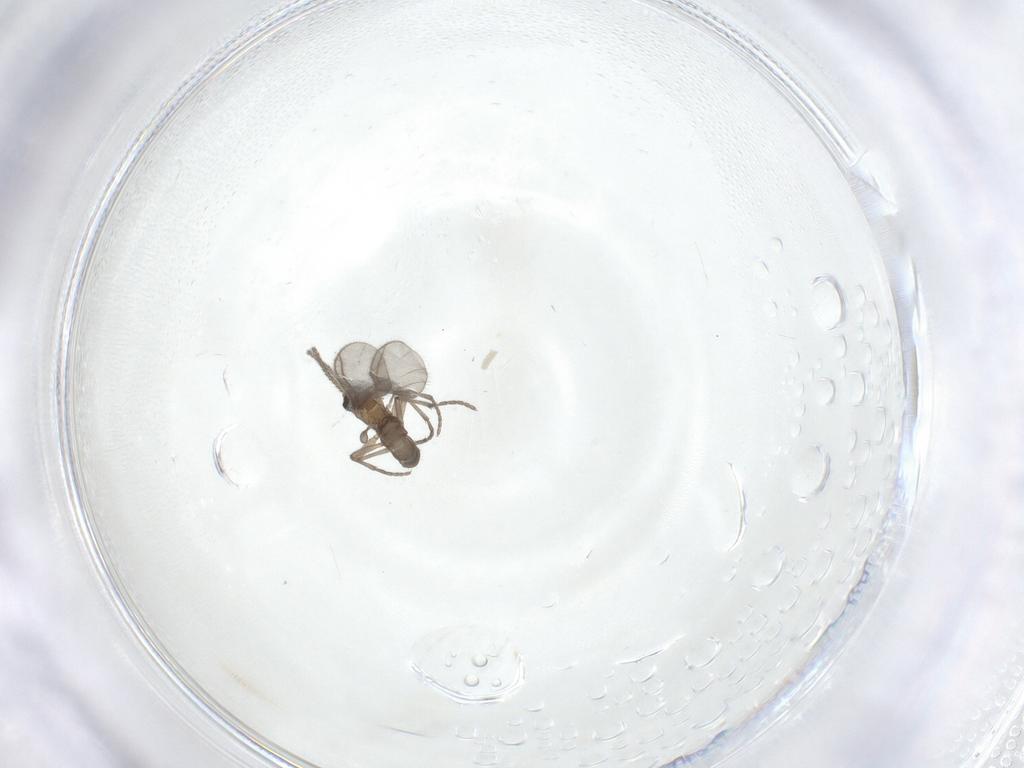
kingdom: Animalia
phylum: Arthropoda
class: Insecta
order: Diptera
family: Sciaridae
